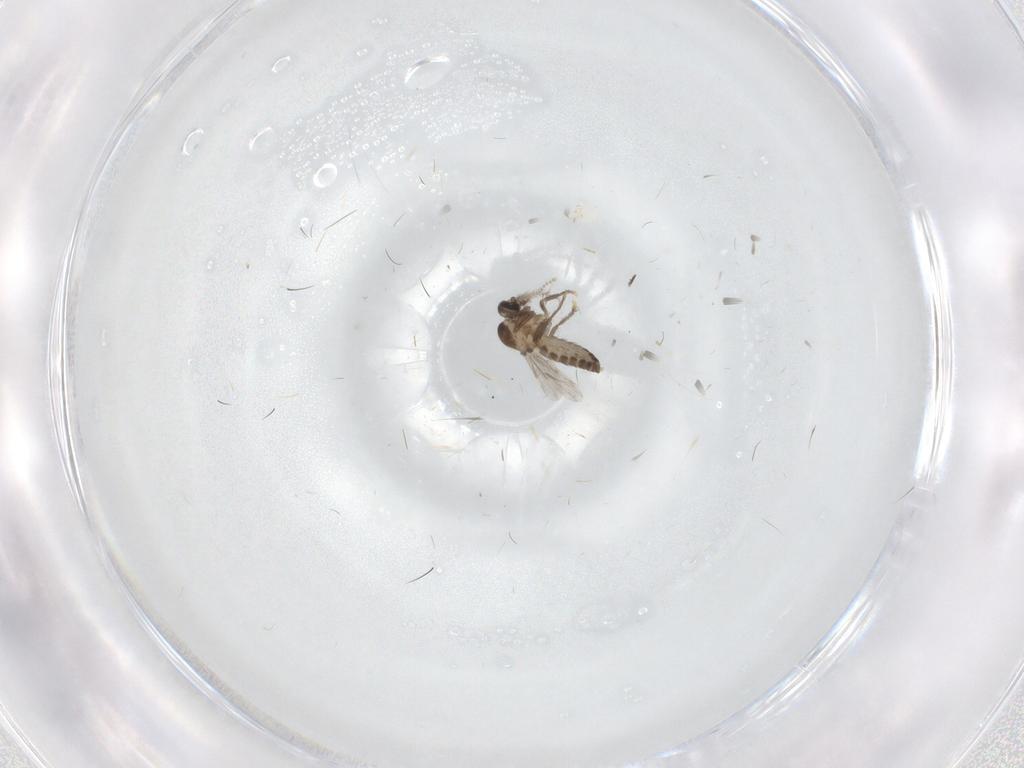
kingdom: Animalia
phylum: Arthropoda
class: Insecta
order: Diptera
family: Ceratopogonidae
